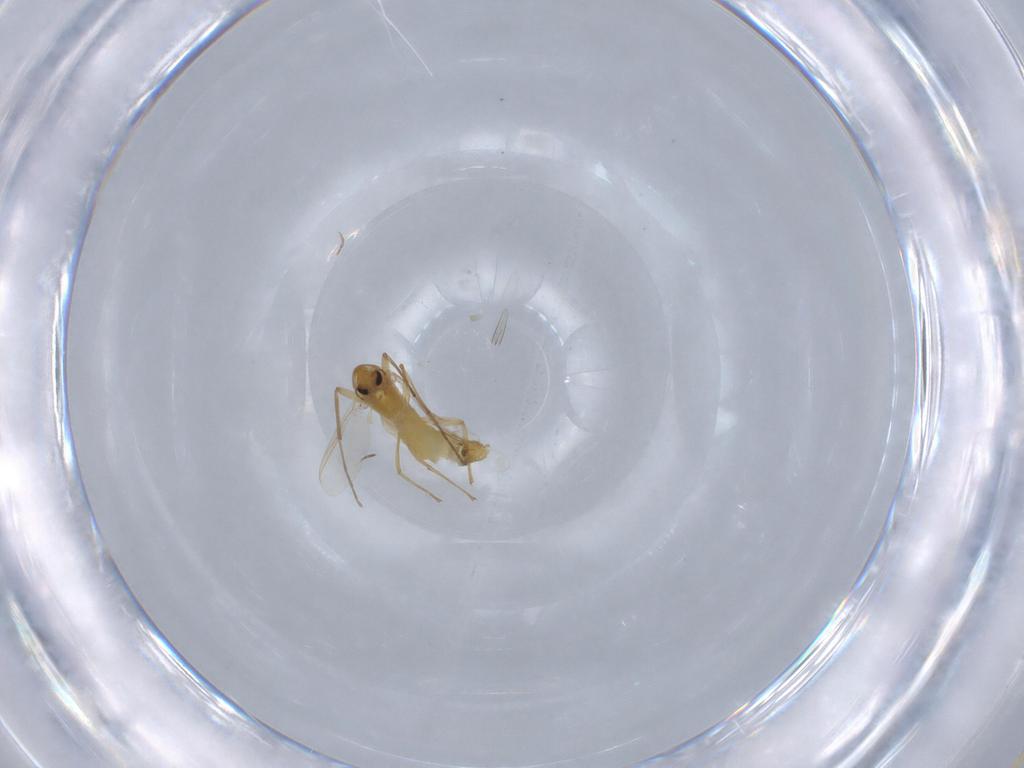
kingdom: Animalia
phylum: Arthropoda
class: Insecta
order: Diptera
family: Chironomidae
